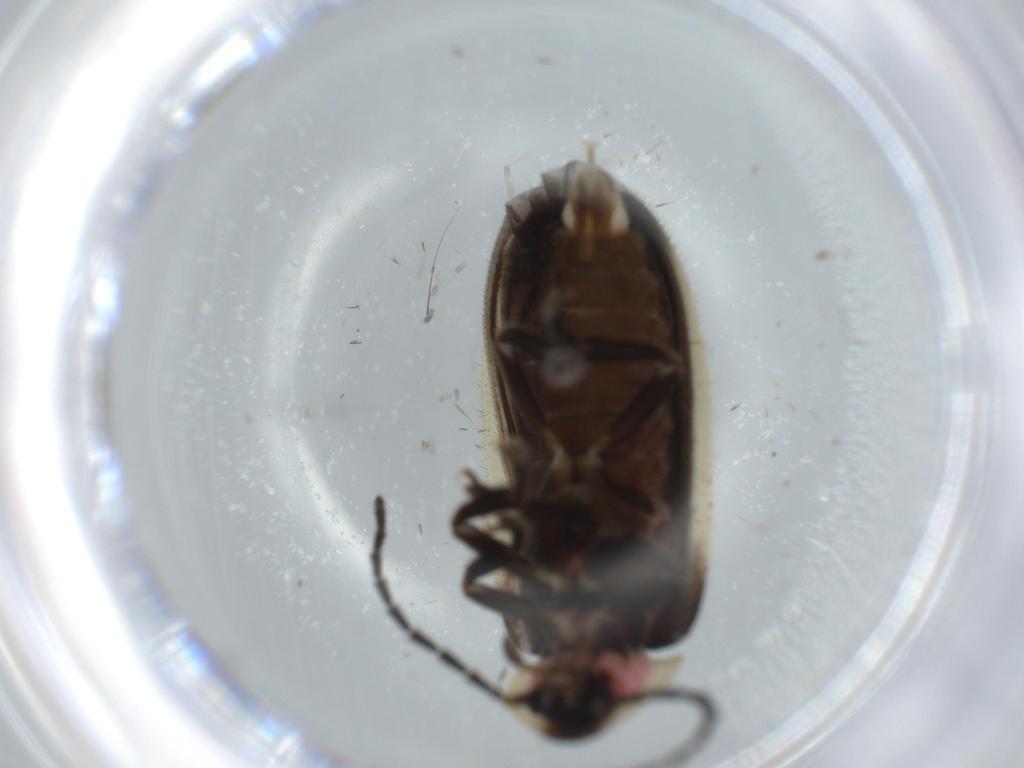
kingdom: Animalia
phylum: Arthropoda
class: Insecta
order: Coleoptera
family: Lampyridae
